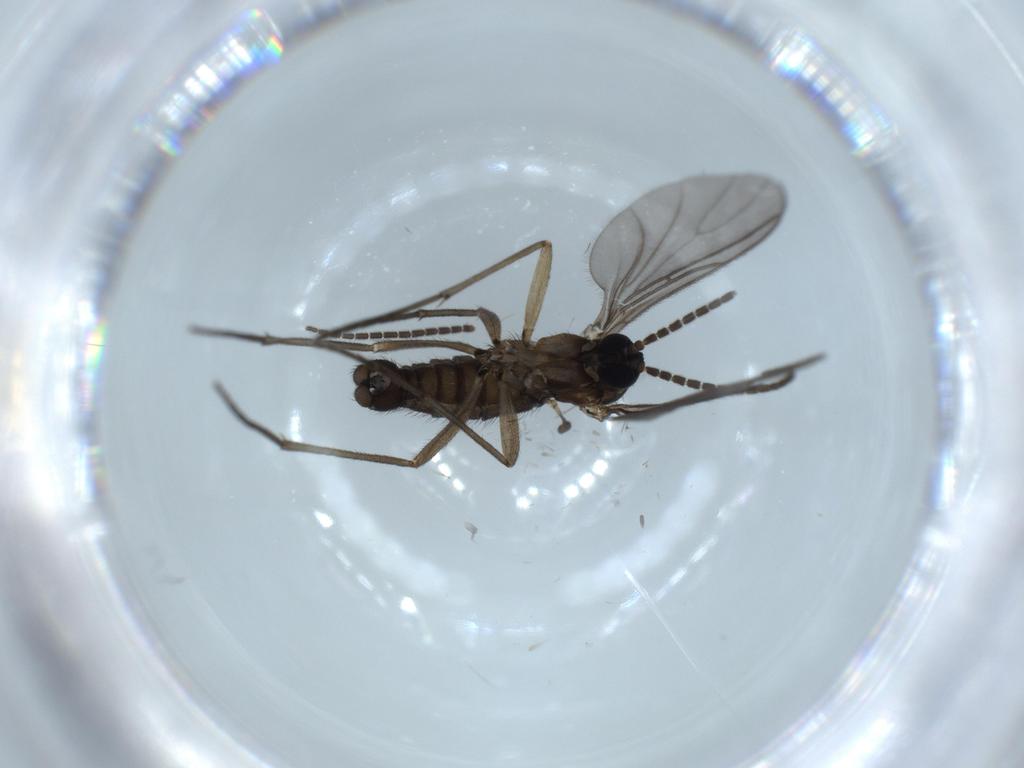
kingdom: Animalia
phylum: Arthropoda
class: Insecta
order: Diptera
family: Sciaridae
